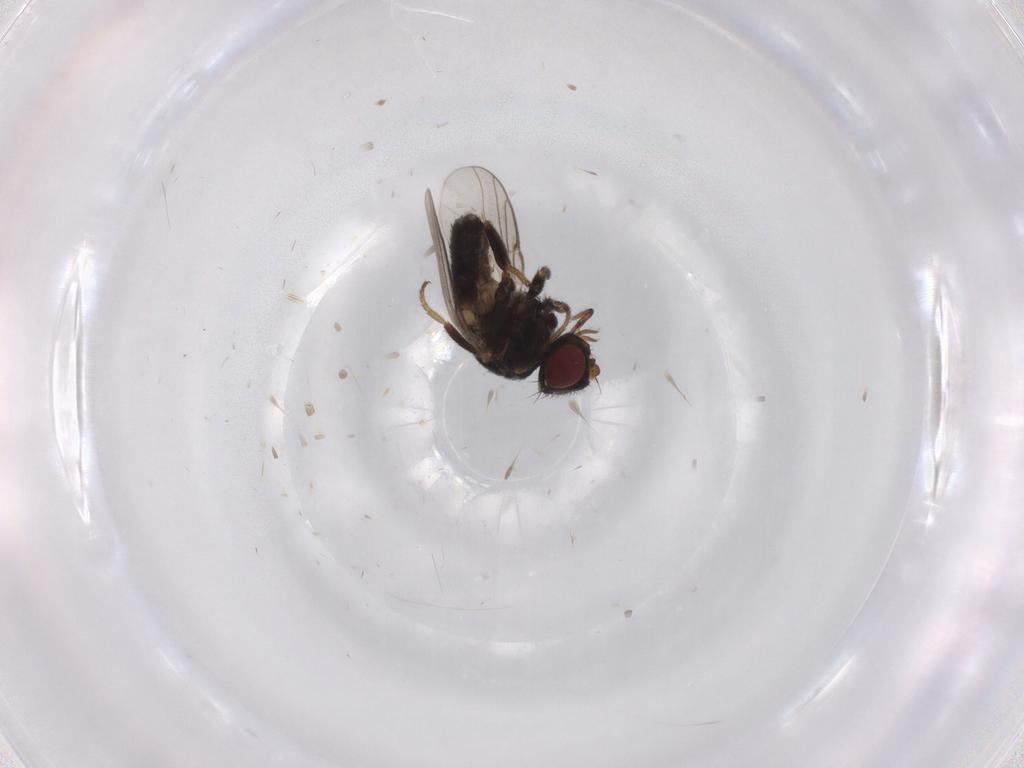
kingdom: Animalia
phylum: Arthropoda
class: Insecta
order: Diptera
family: Chloropidae
